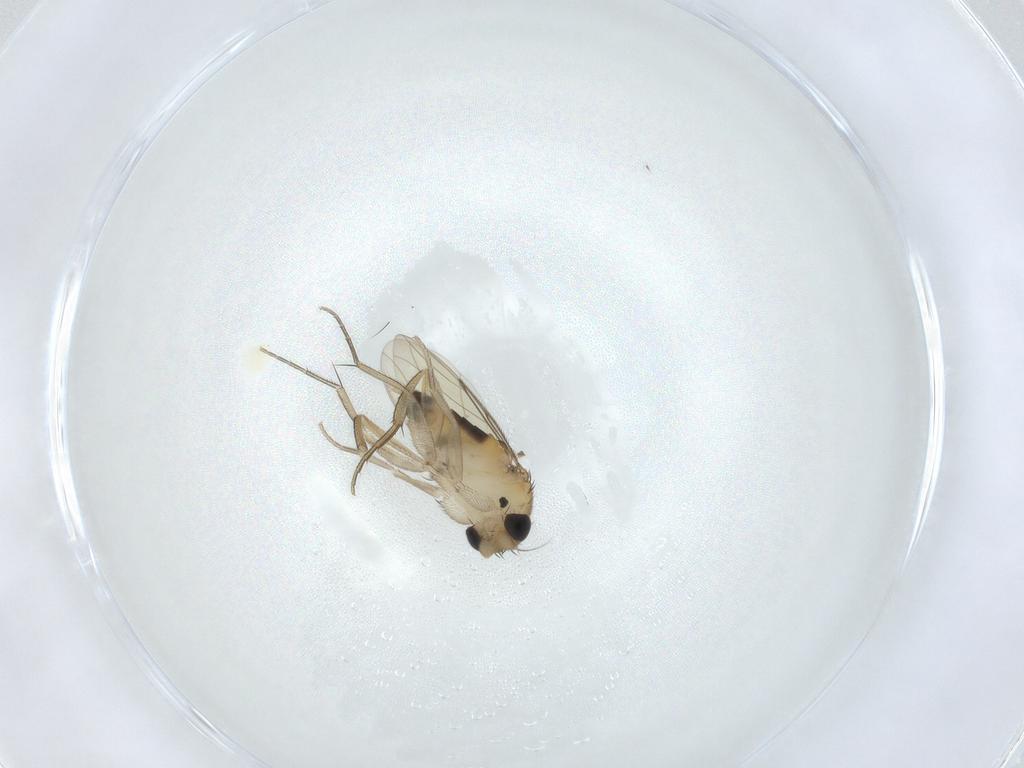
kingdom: Animalia
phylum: Arthropoda
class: Insecta
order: Diptera
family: Phoridae
